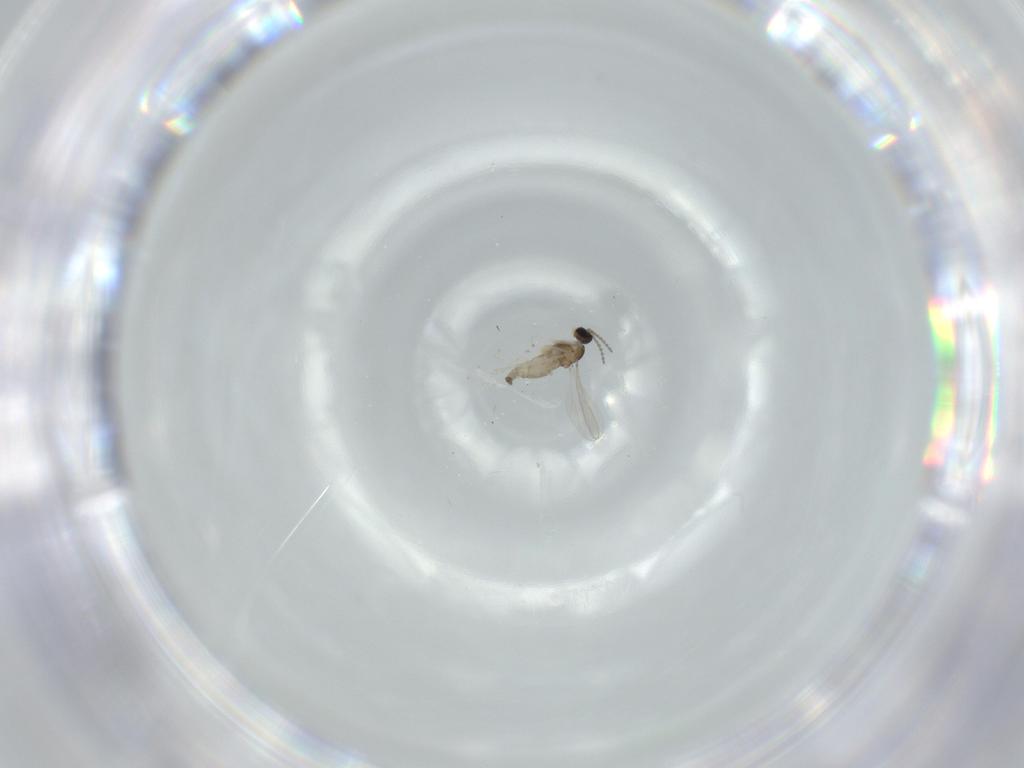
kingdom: Animalia
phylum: Arthropoda
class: Insecta
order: Diptera
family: Cecidomyiidae
